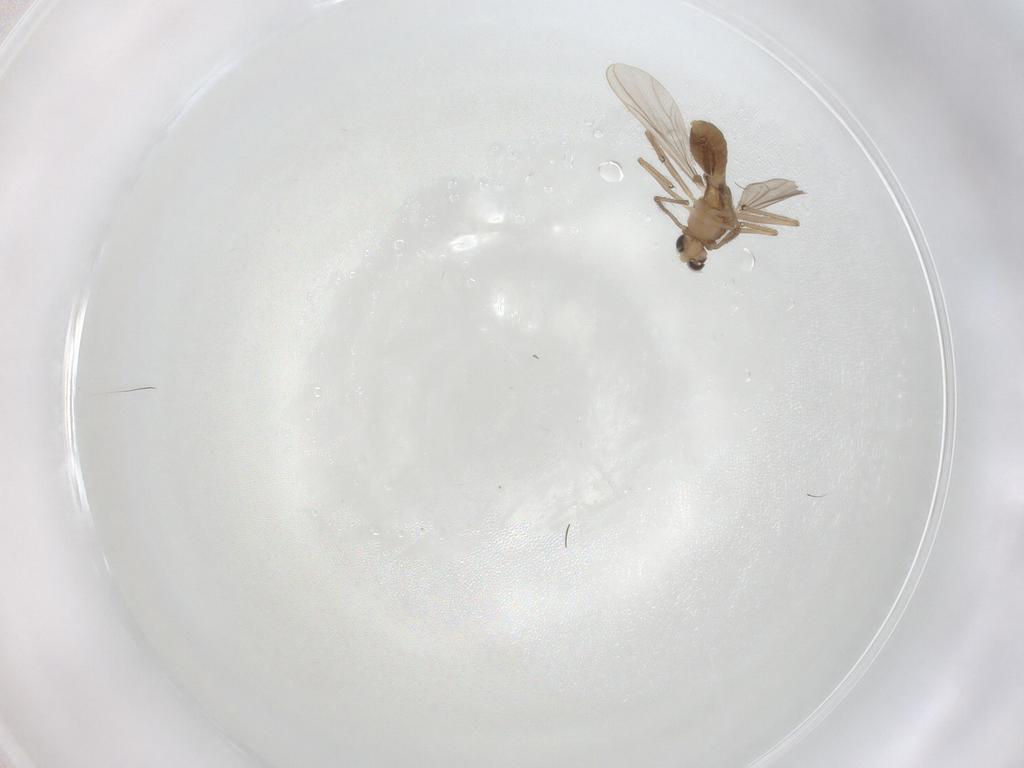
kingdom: Animalia
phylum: Arthropoda
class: Insecta
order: Diptera
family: Chironomidae
